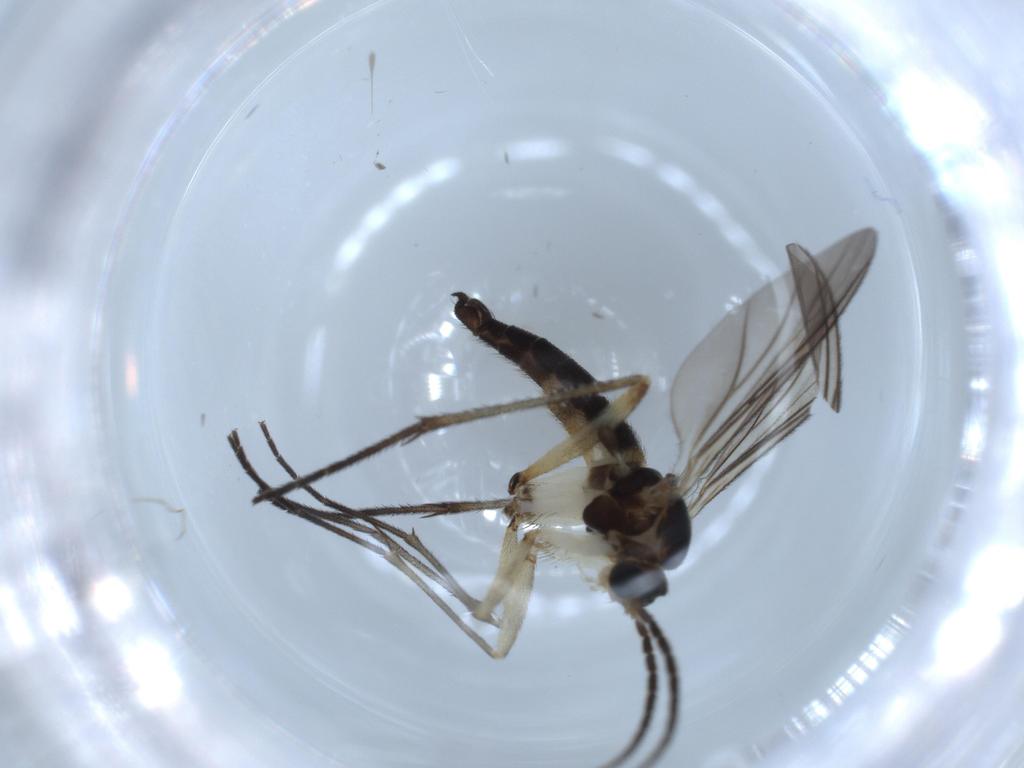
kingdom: Animalia
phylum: Arthropoda
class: Insecta
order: Diptera
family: Sciaridae
